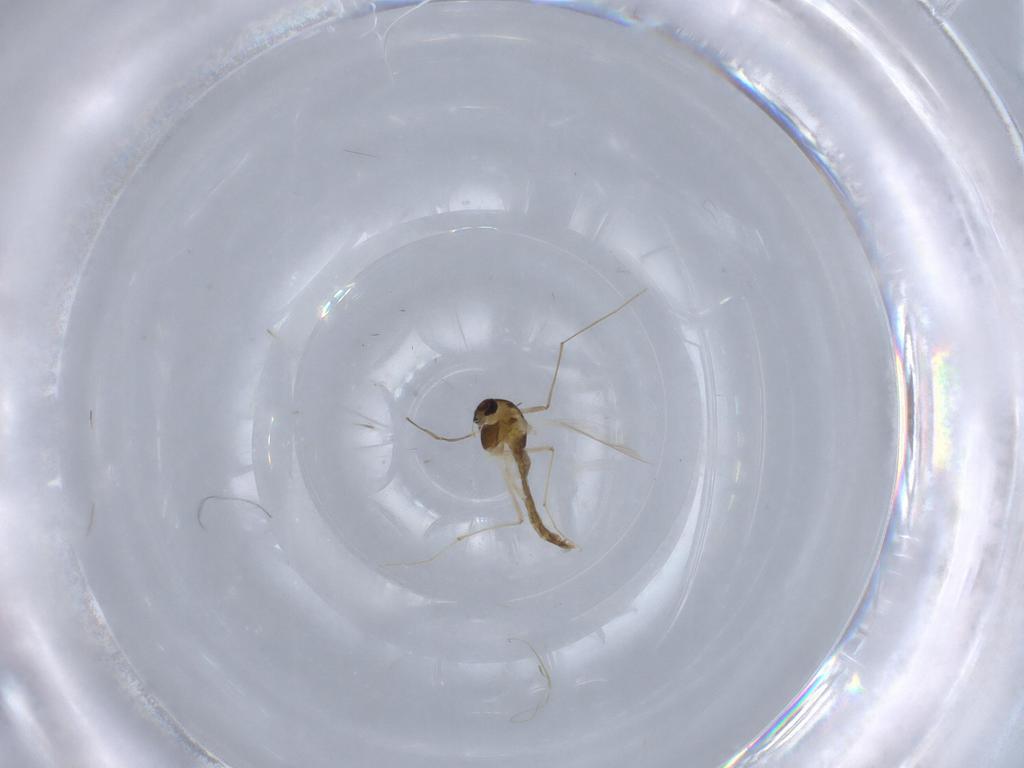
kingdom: Animalia
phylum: Arthropoda
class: Insecta
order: Diptera
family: Chironomidae
